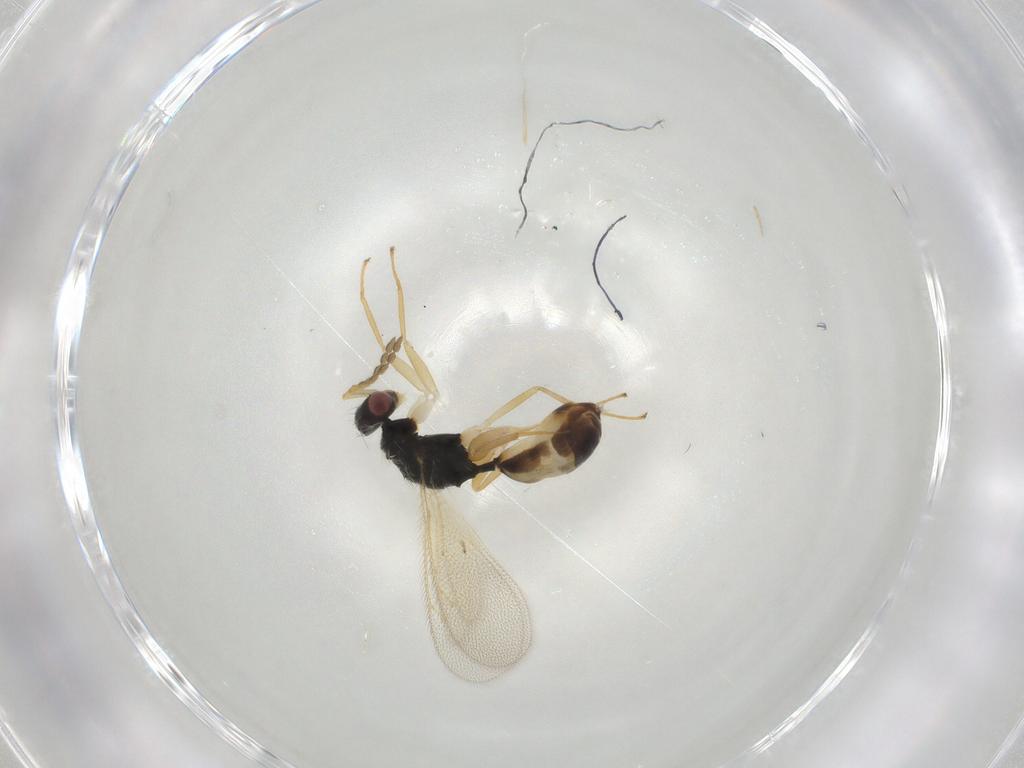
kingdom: Animalia
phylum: Arthropoda
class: Insecta
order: Hymenoptera
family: Eulophidae
